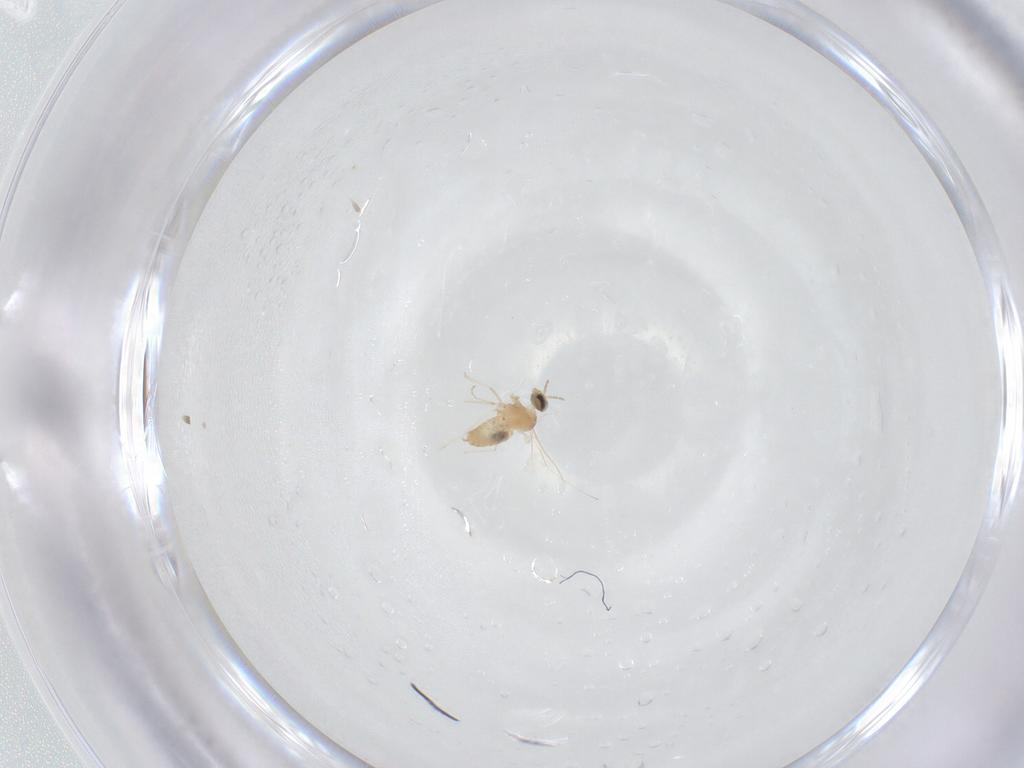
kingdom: Animalia
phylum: Arthropoda
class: Insecta
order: Diptera
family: Cecidomyiidae
